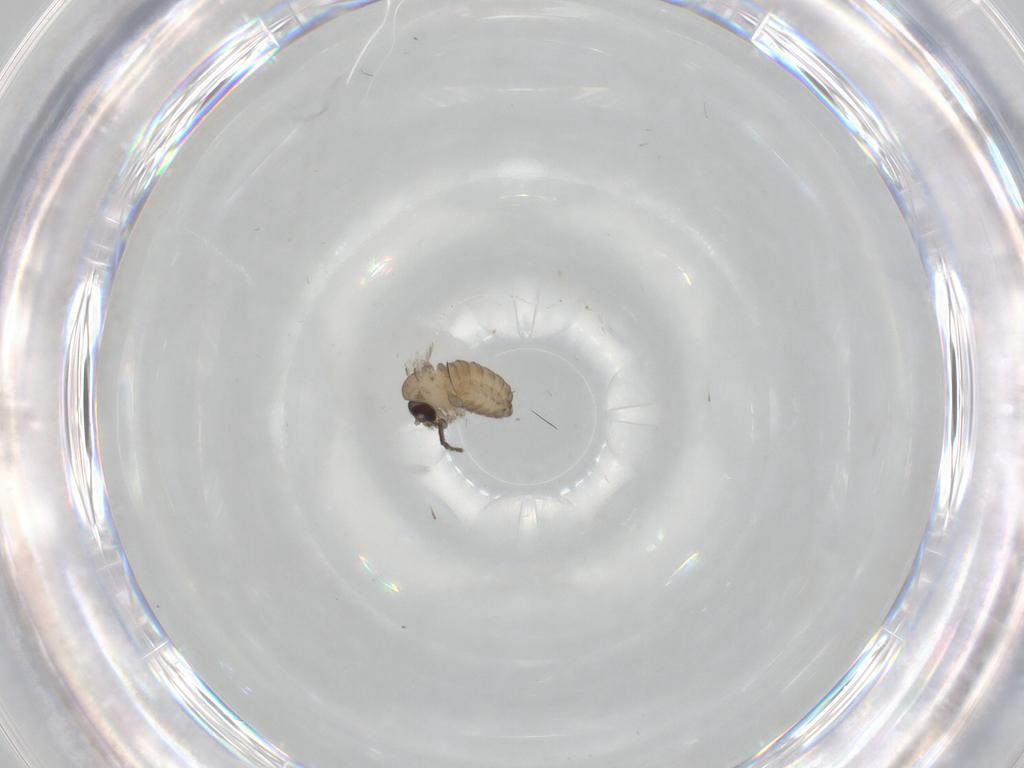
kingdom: Animalia
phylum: Arthropoda
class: Insecta
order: Diptera
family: Psychodidae
